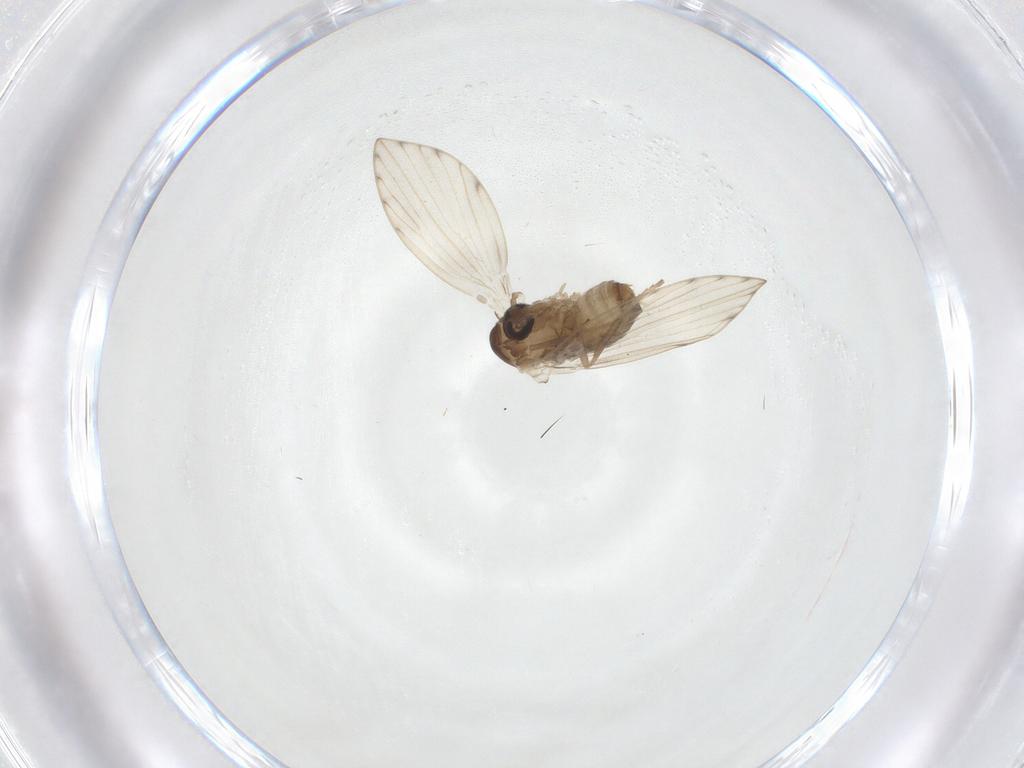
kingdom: Animalia
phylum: Arthropoda
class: Insecta
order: Diptera
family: Psychodidae
